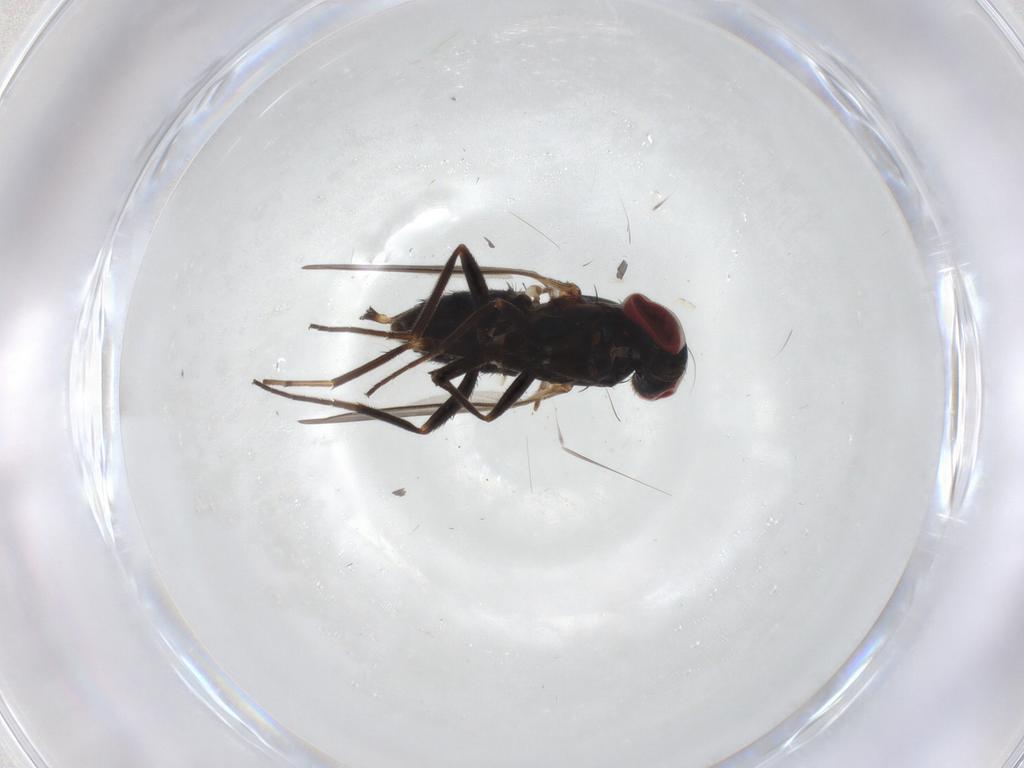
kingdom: Animalia
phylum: Arthropoda
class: Insecta
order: Diptera
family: Dolichopodidae
